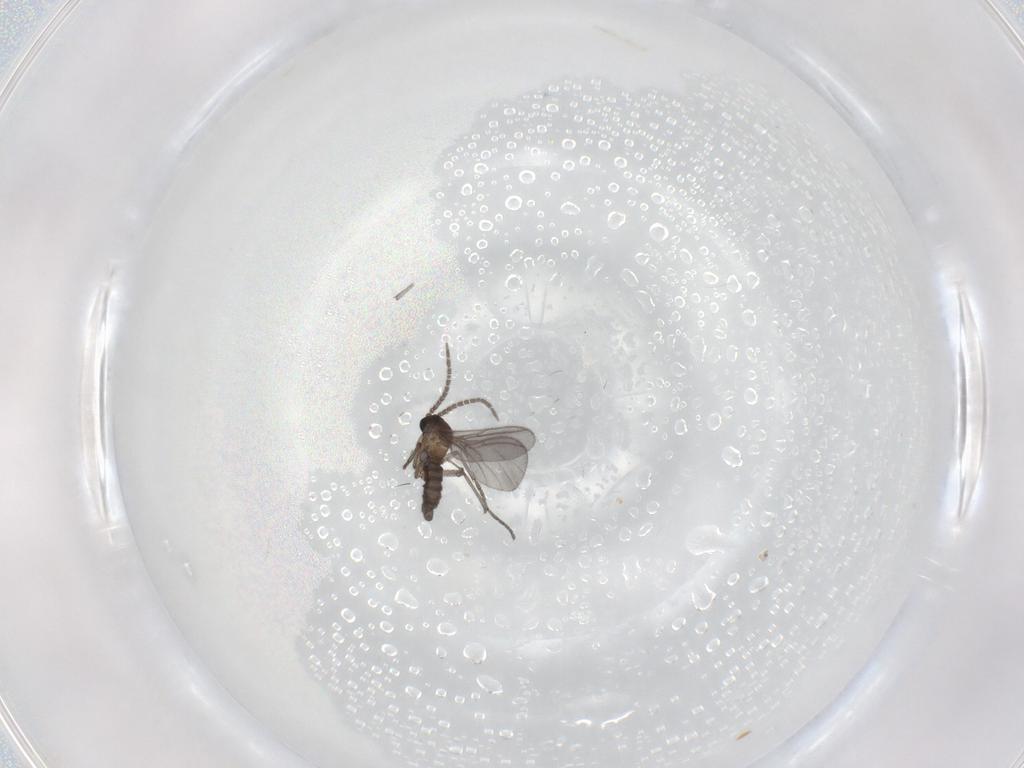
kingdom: Animalia
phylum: Arthropoda
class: Insecta
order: Diptera
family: Sciaridae
